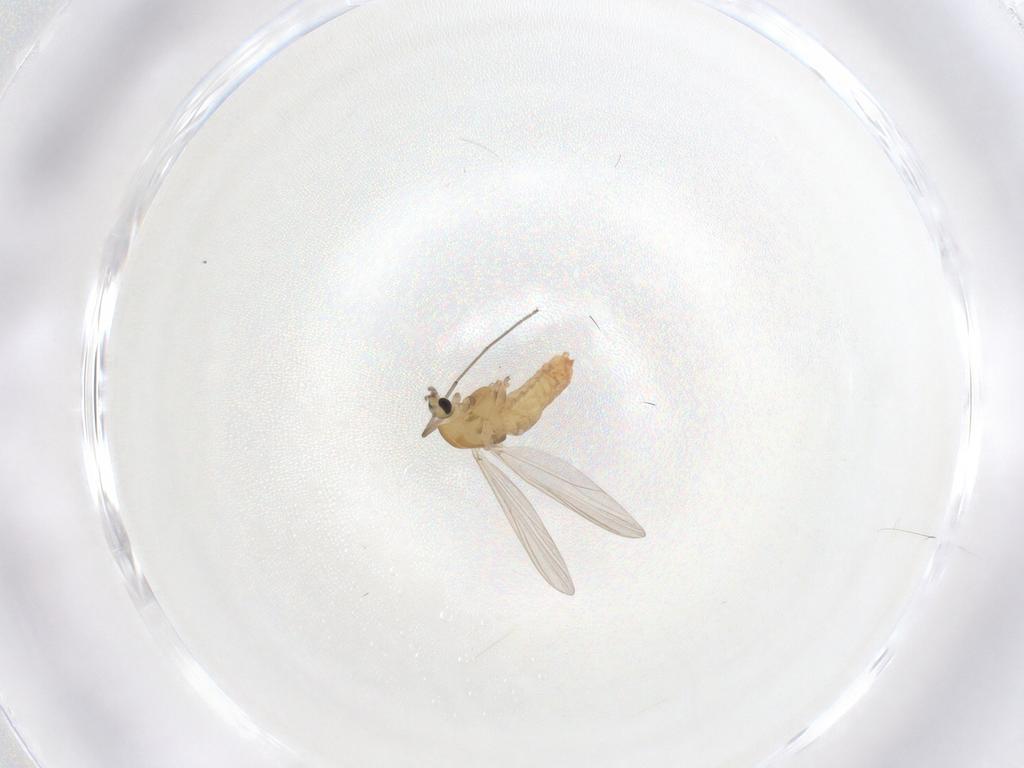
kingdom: Animalia
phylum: Arthropoda
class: Insecta
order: Diptera
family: Chironomidae
